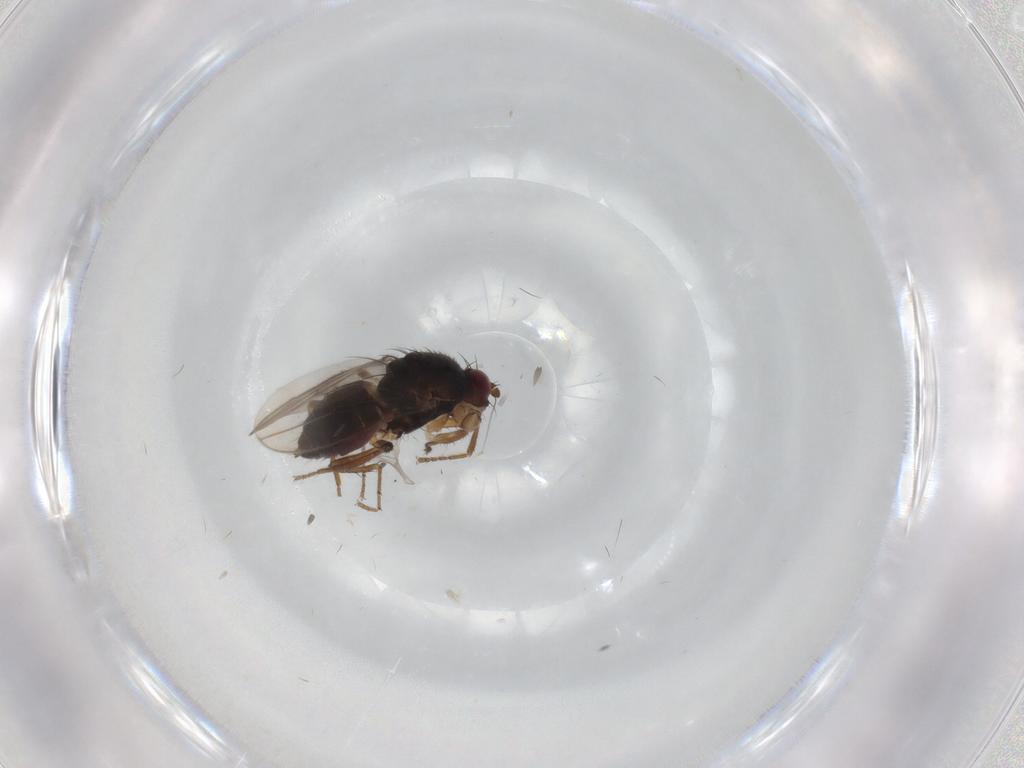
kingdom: Animalia
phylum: Arthropoda
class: Insecta
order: Diptera
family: Sphaeroceridae
